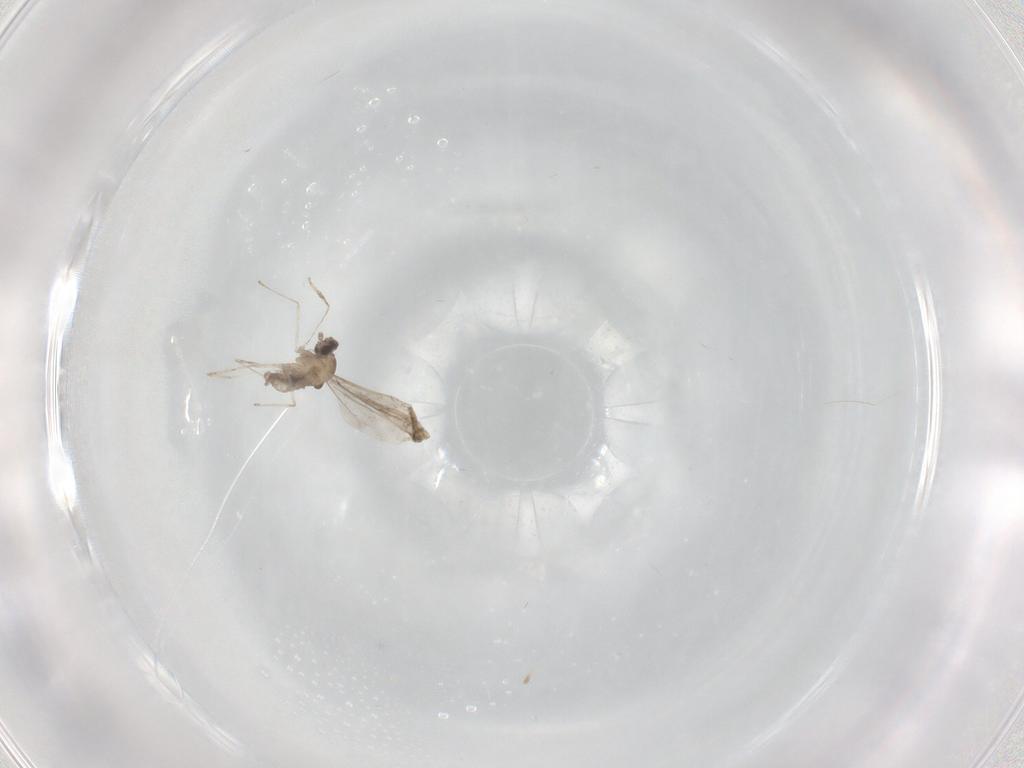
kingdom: Animalia
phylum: Arthropoda
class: Insecta
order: Diptera
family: Cecidomyiidae
